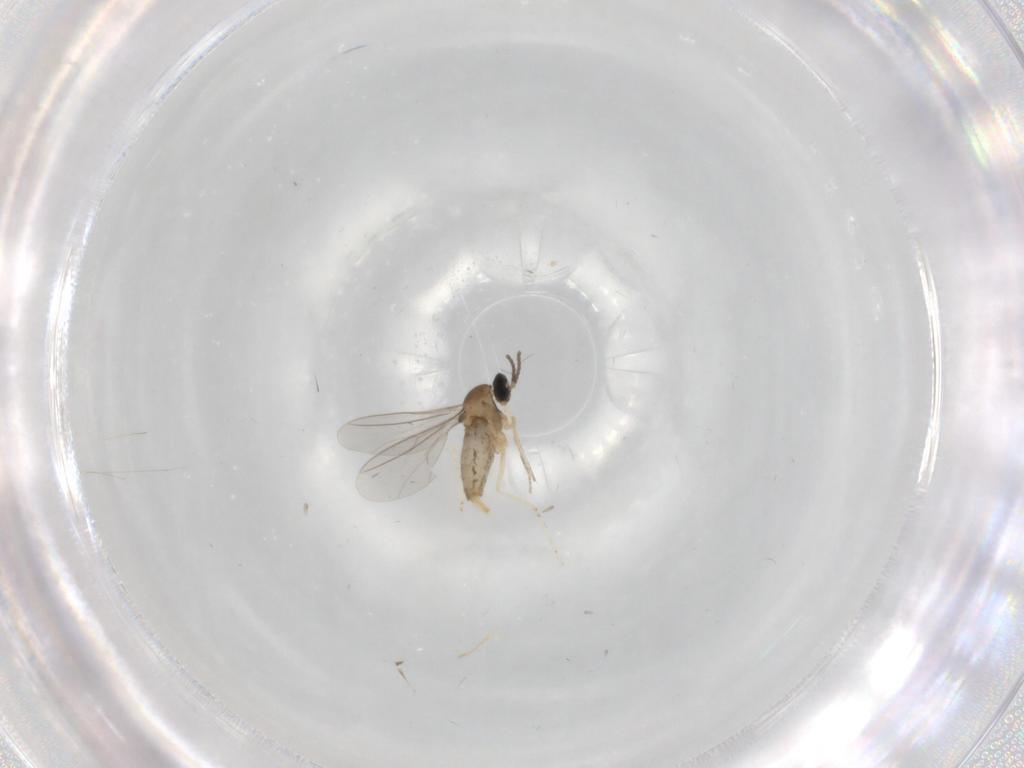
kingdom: Animalia
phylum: Arthropoda
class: Insecta
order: Diptera
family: Cecidomyiidae
